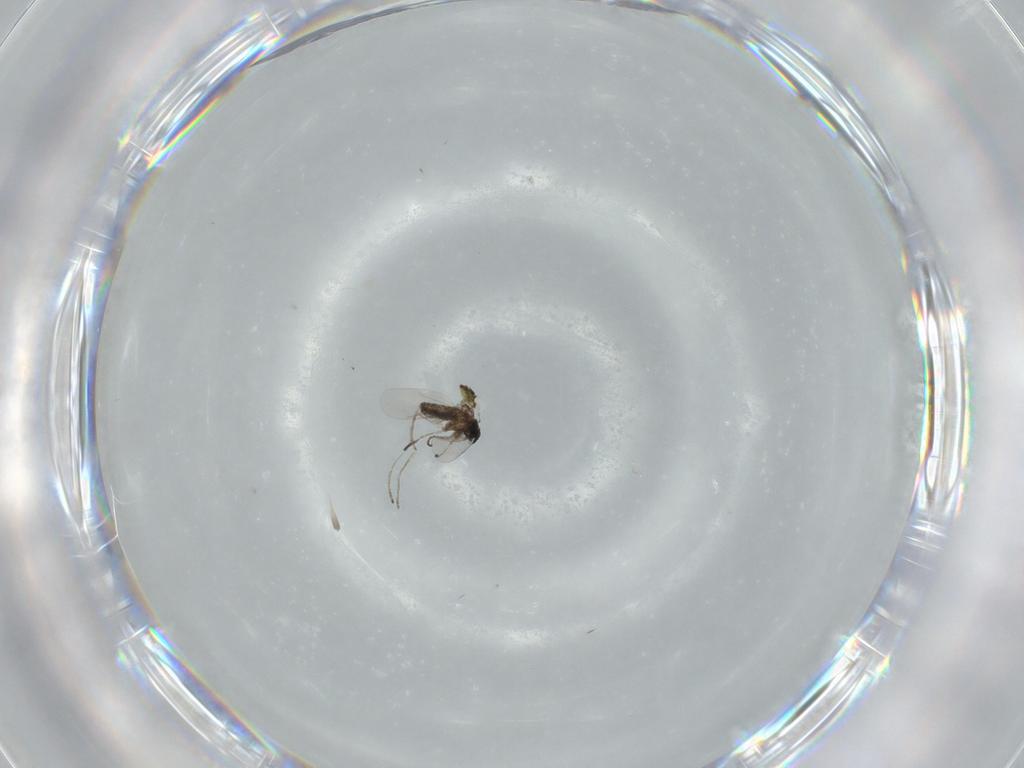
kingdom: Animalia
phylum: Arthropoda
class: Insecta
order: Diptera
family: Cecidomyiidae
